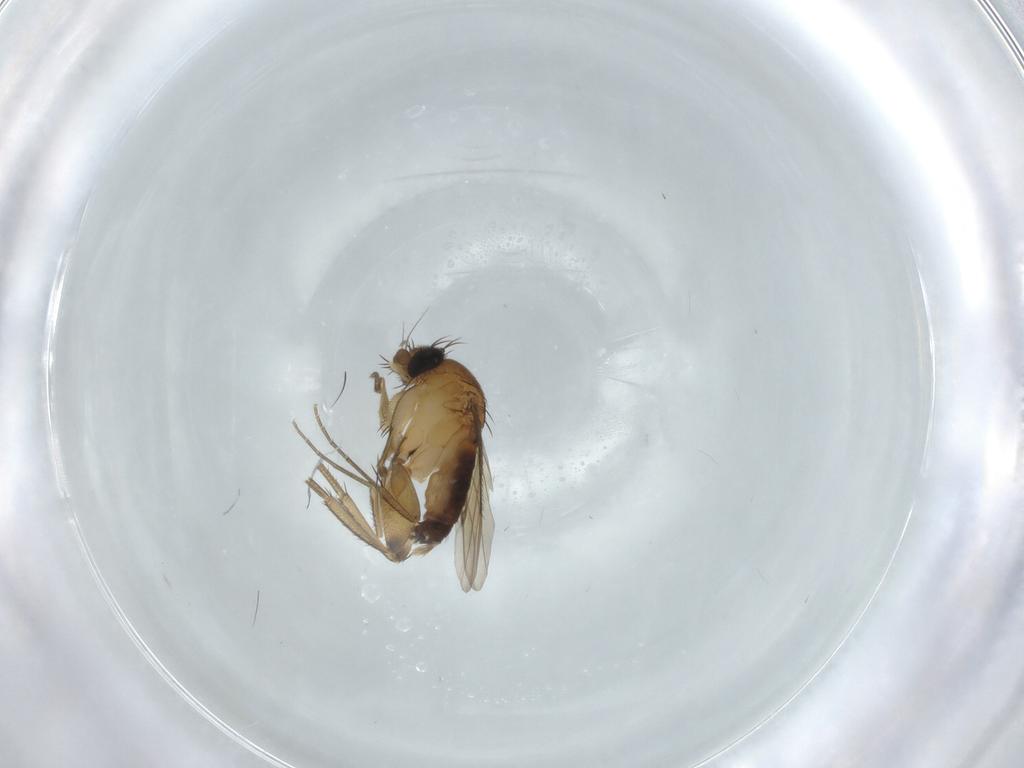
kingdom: Animalia
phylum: Arthropoda
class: Insecta
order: Diptera
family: Phoridae
